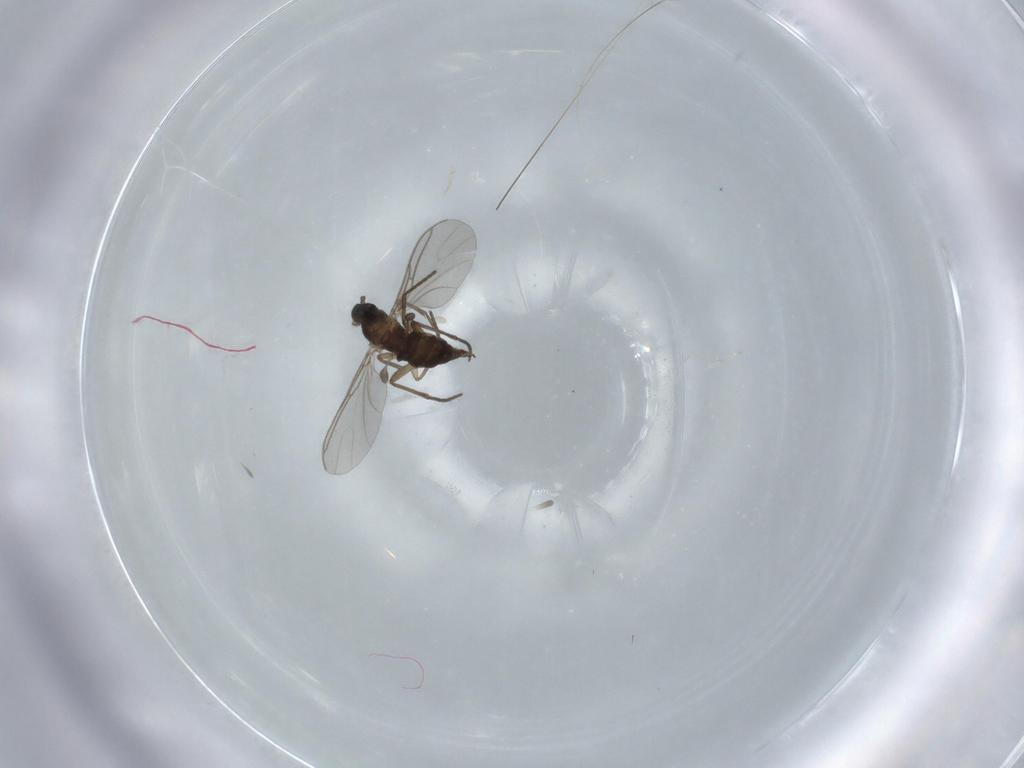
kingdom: Animalia
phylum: Arthropoda
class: Insecta
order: Diptera
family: Sciaridae
